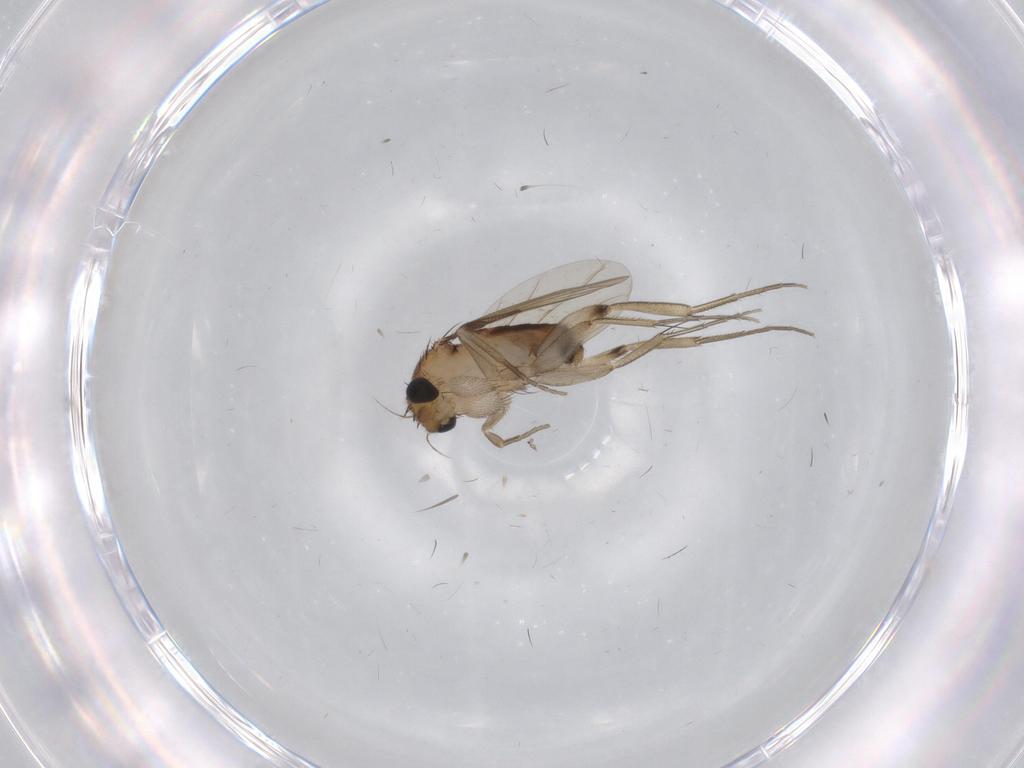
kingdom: Animalia
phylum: Arthropoda
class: Insecta
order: Diptera
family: Phoridae
